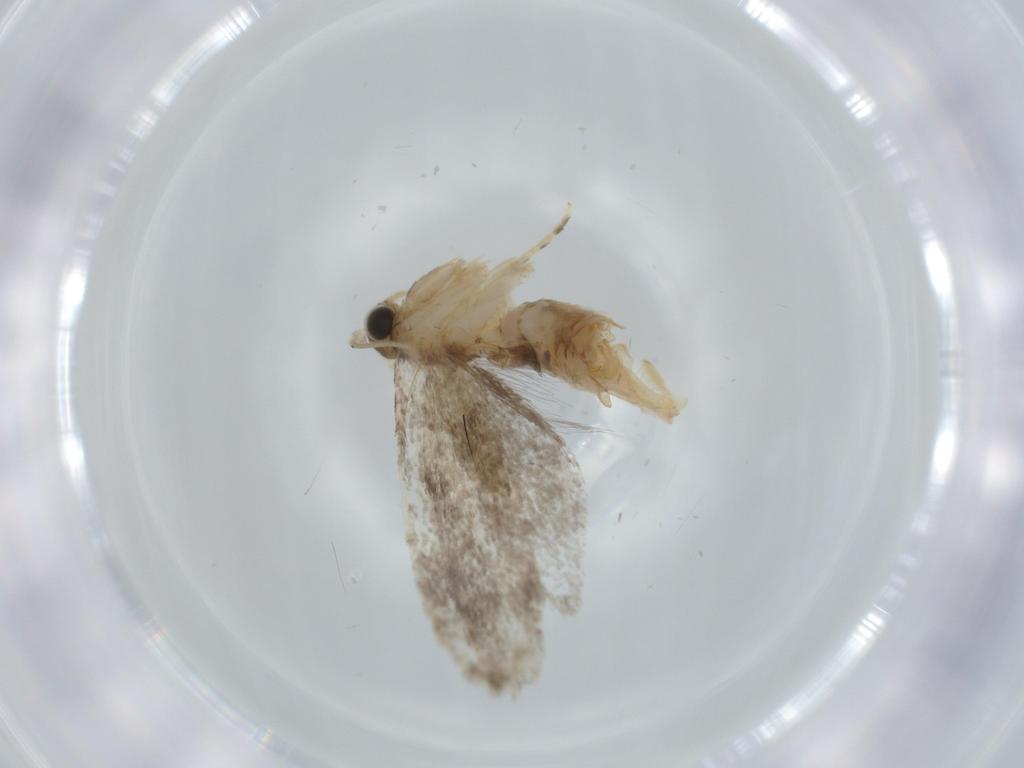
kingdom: Animalia
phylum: Arthropoda
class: Insecta
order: Lepidoptera
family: Tineidae
